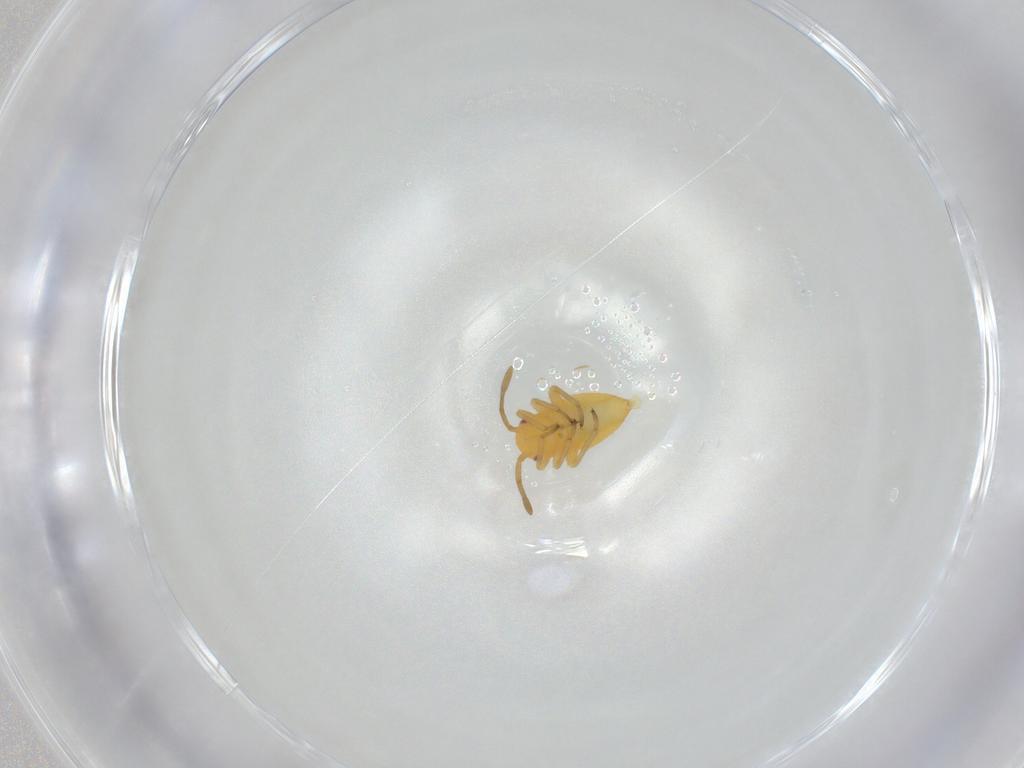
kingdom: Animalia
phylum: Arthropoda
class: Insecta
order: Hemiptera
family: Miridae
